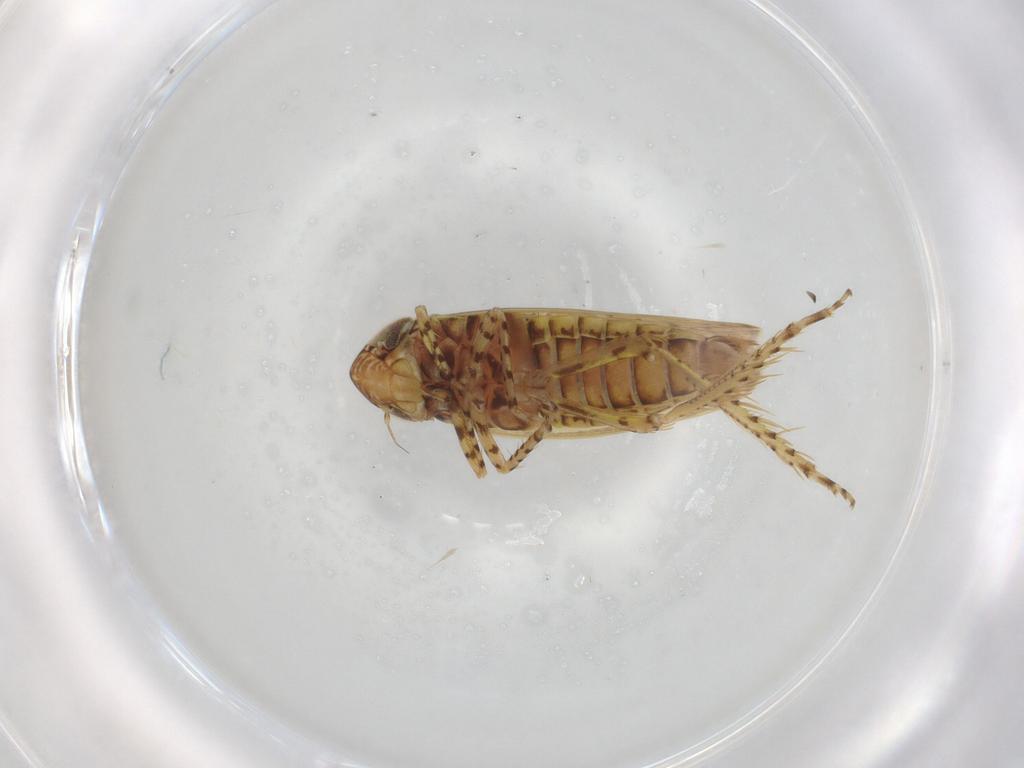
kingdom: Animalia
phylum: Arthropoda
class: Insecta
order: Hemiptera
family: Cicadellidae
